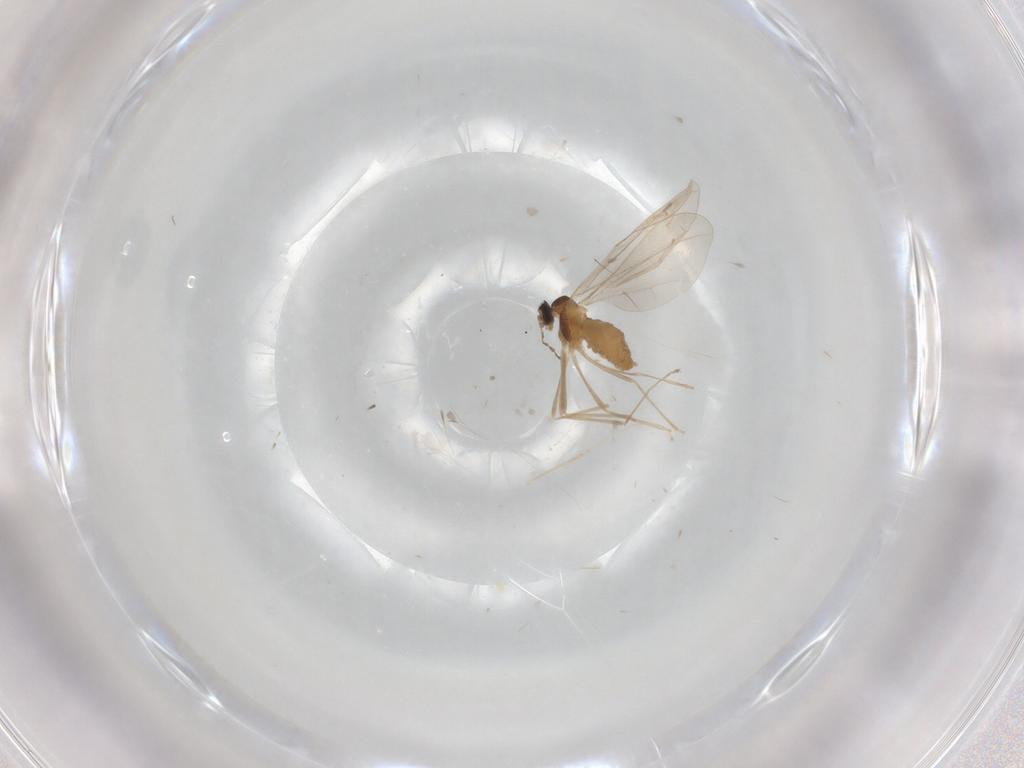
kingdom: Animalia
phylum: Arthropoda
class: Insecta
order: Diptera
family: Cecidomyiidae
